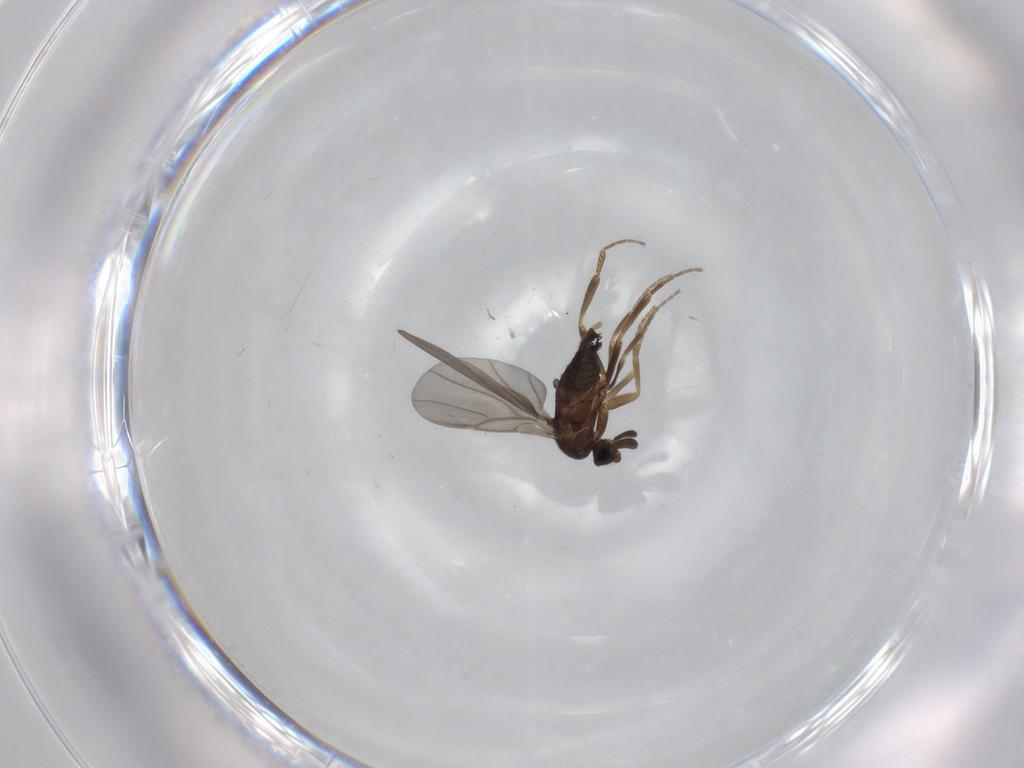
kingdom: Animalia
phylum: Arthropoda
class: Insecta
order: Diptera
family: Phoridae
